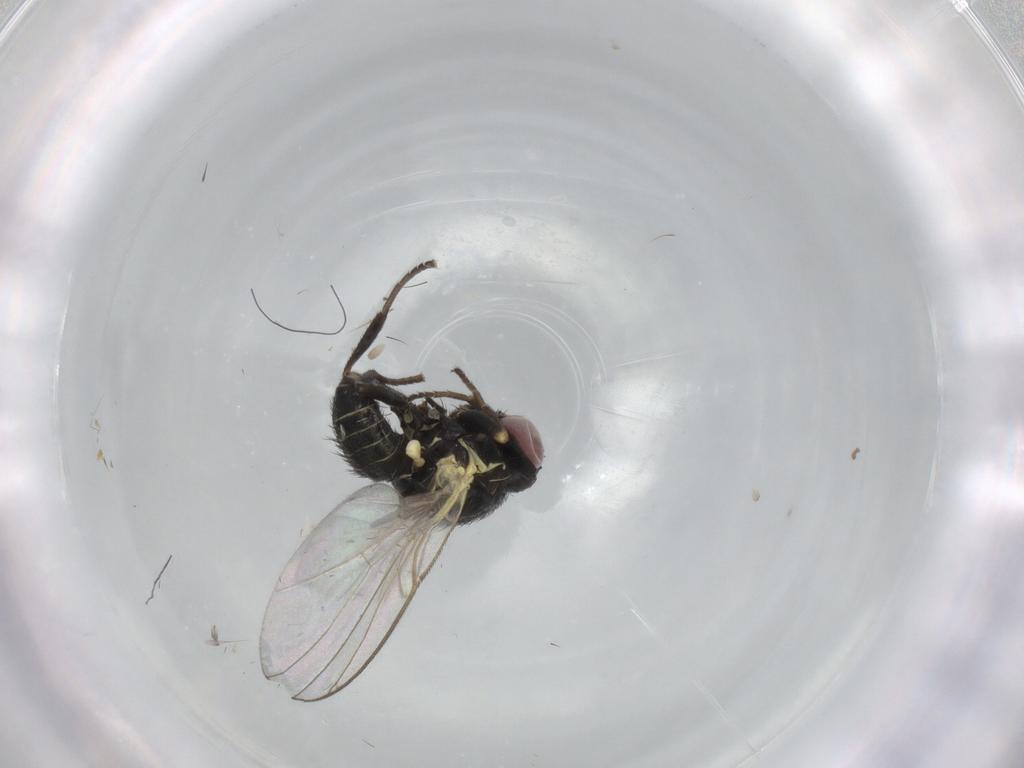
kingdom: Animalia
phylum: Arthropoda
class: Insecta
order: Diptera
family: Agromyzidae
